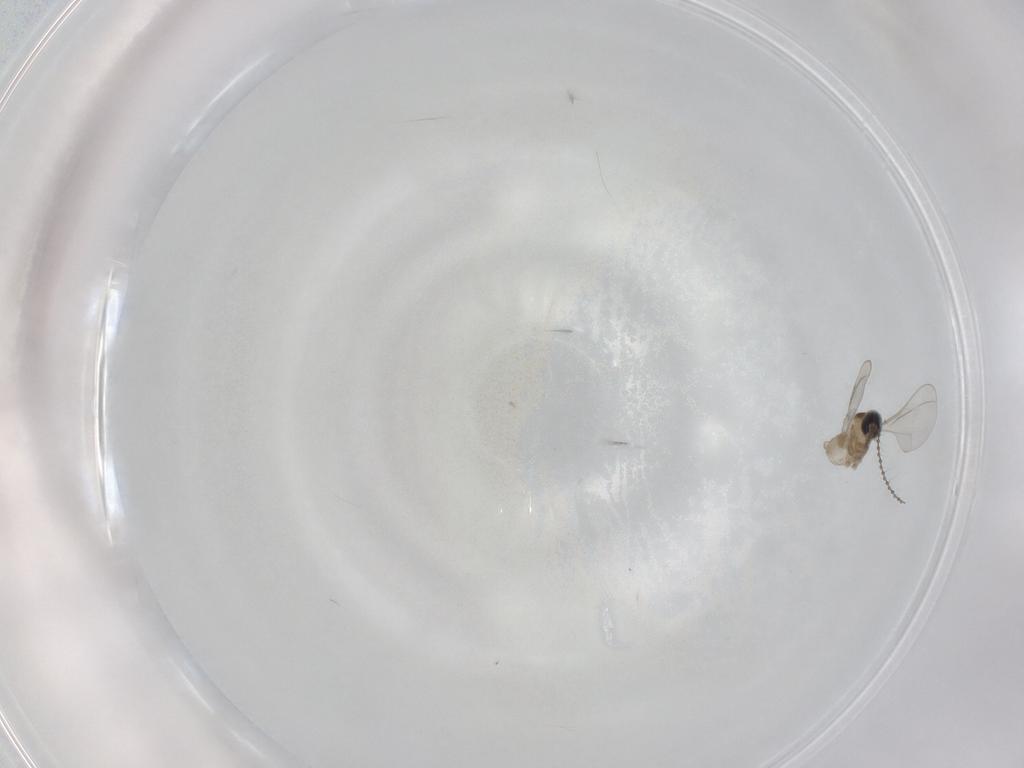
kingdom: Animalia
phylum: Arthropoda
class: Insecta
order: Diptera
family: Cecidomyiidae
